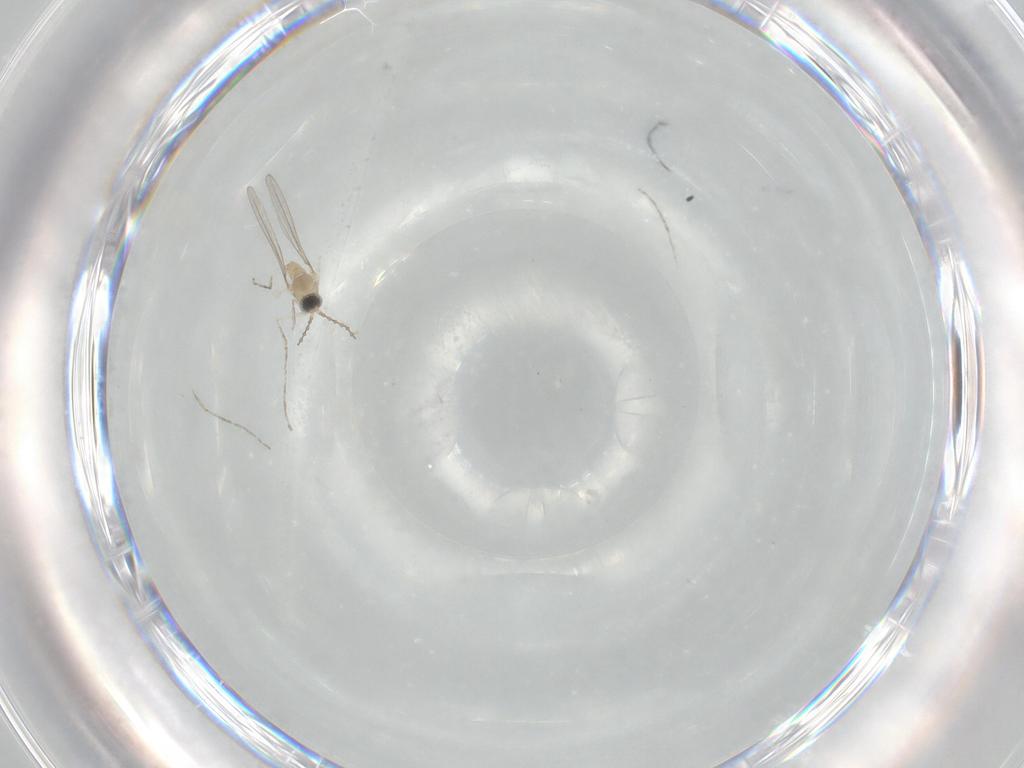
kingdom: Animalia
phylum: Arthropoda
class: Insecta
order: Diptera
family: Cecidomyiidae
